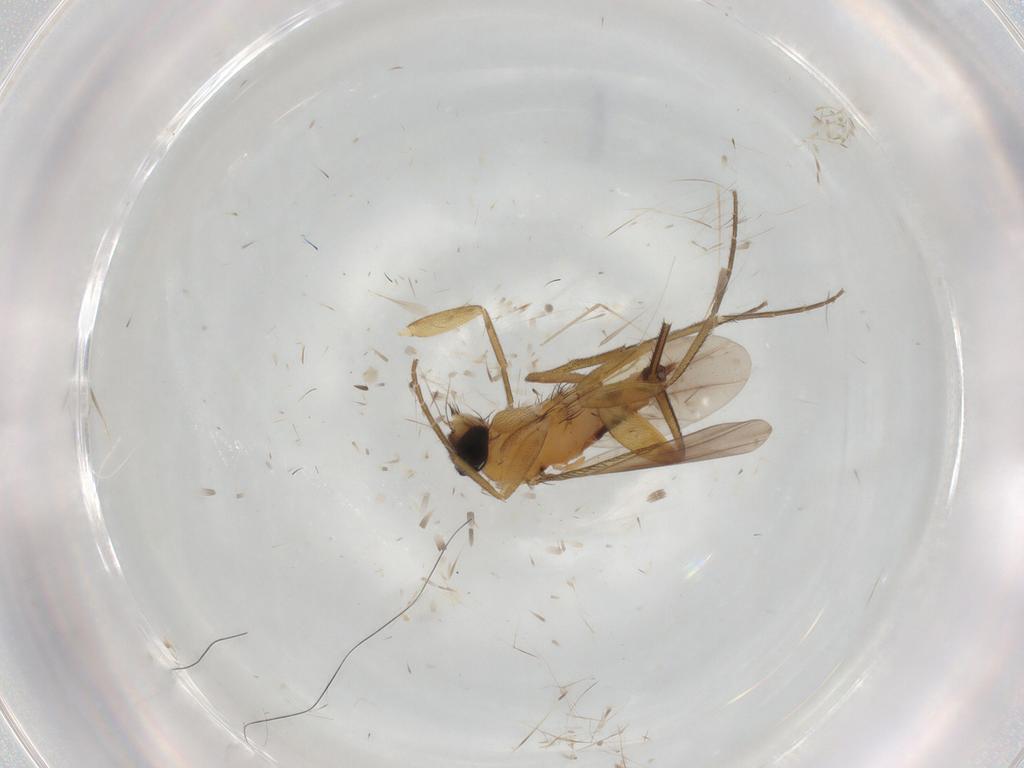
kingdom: Animalia
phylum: Arthropoda
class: Insecta
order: Diptera
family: Phoridae
